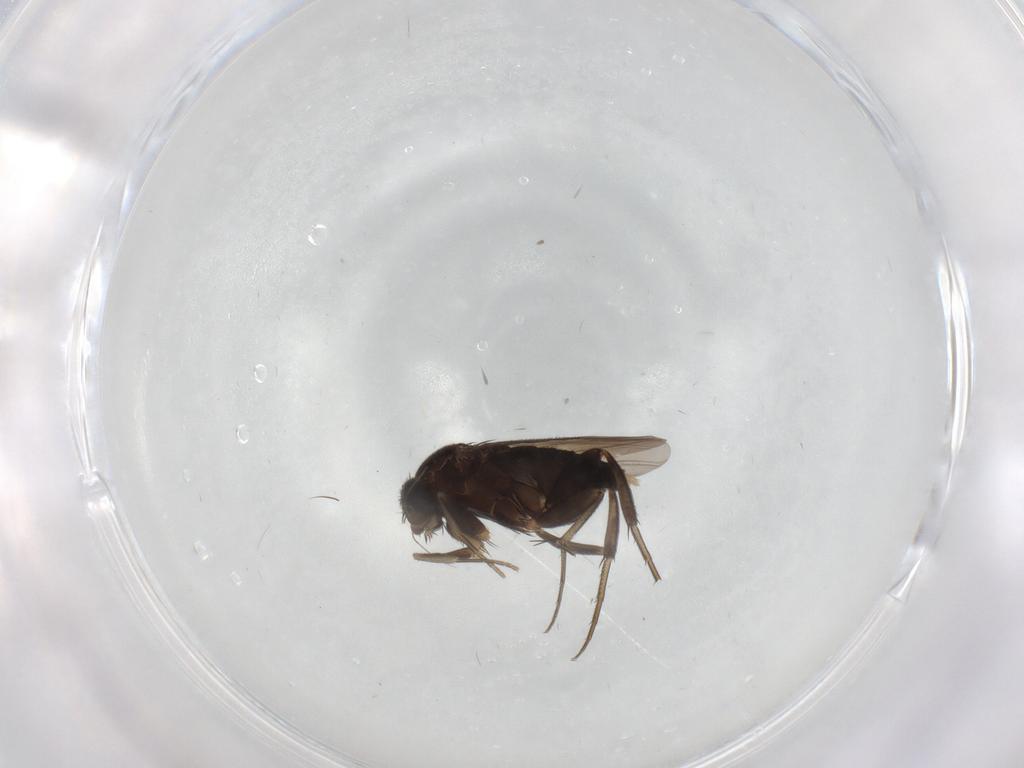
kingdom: Animalia
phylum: Arthropoda
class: Insecta
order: Diptera
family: Phoridae
